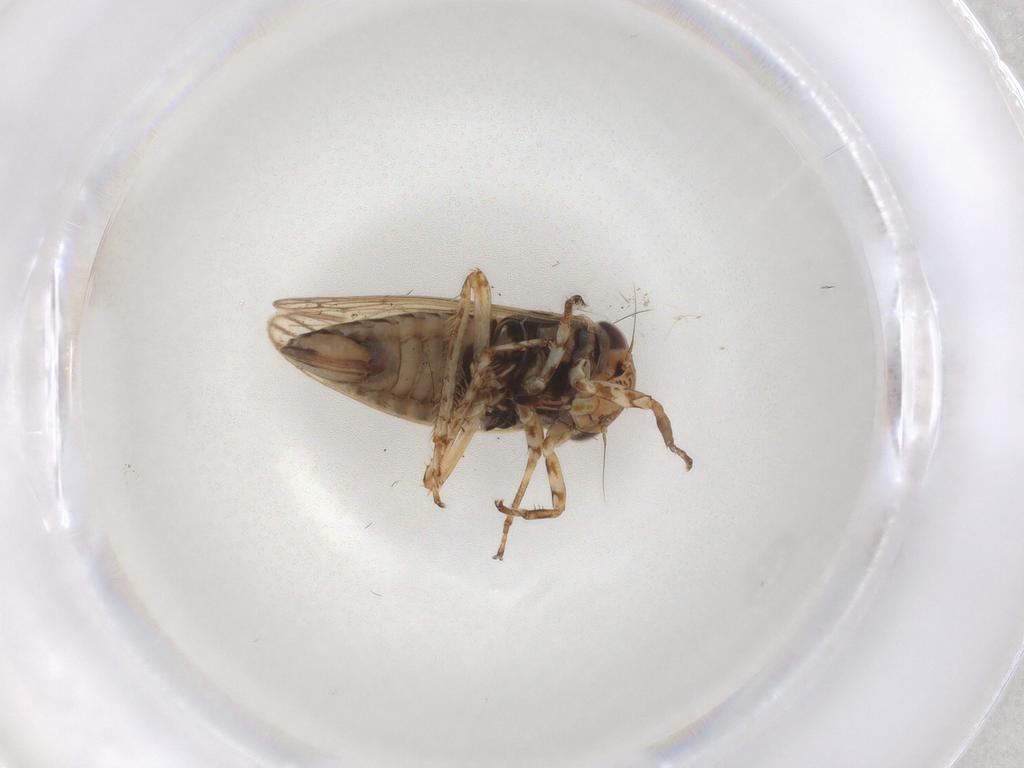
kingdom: Animalia
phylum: Arthropoda
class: Insecta
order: Hemiptera
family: Cicadellidae
